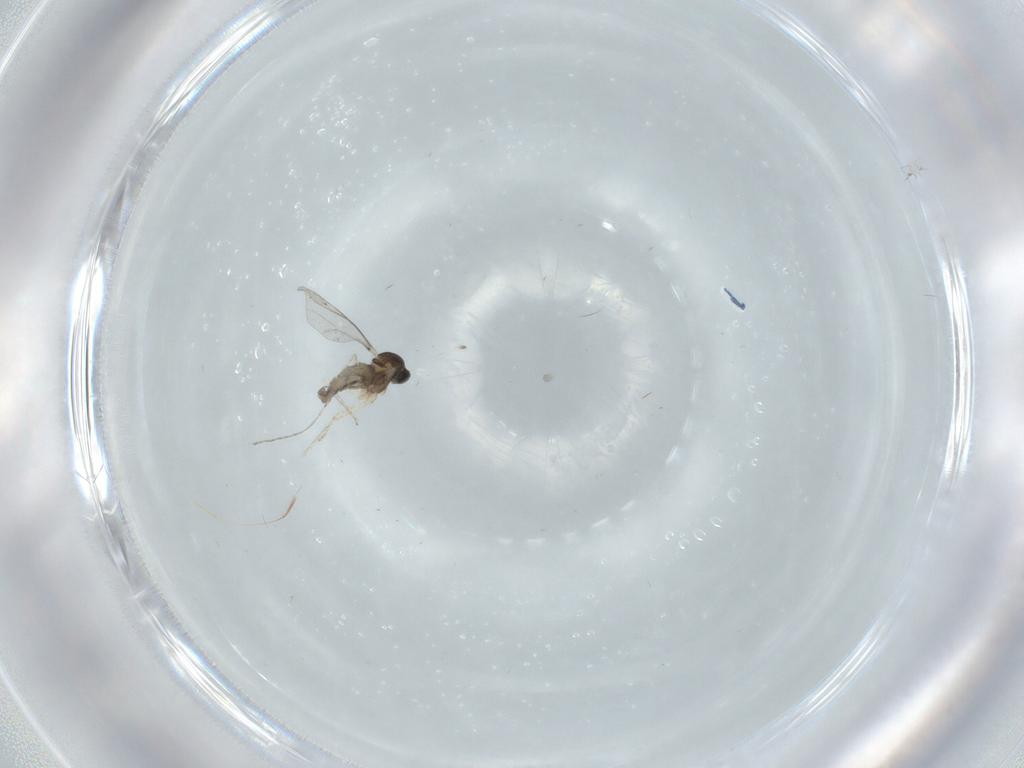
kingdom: Animalia
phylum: Arthropoda
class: Insecta
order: Diptera
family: Cecidomyiidae
